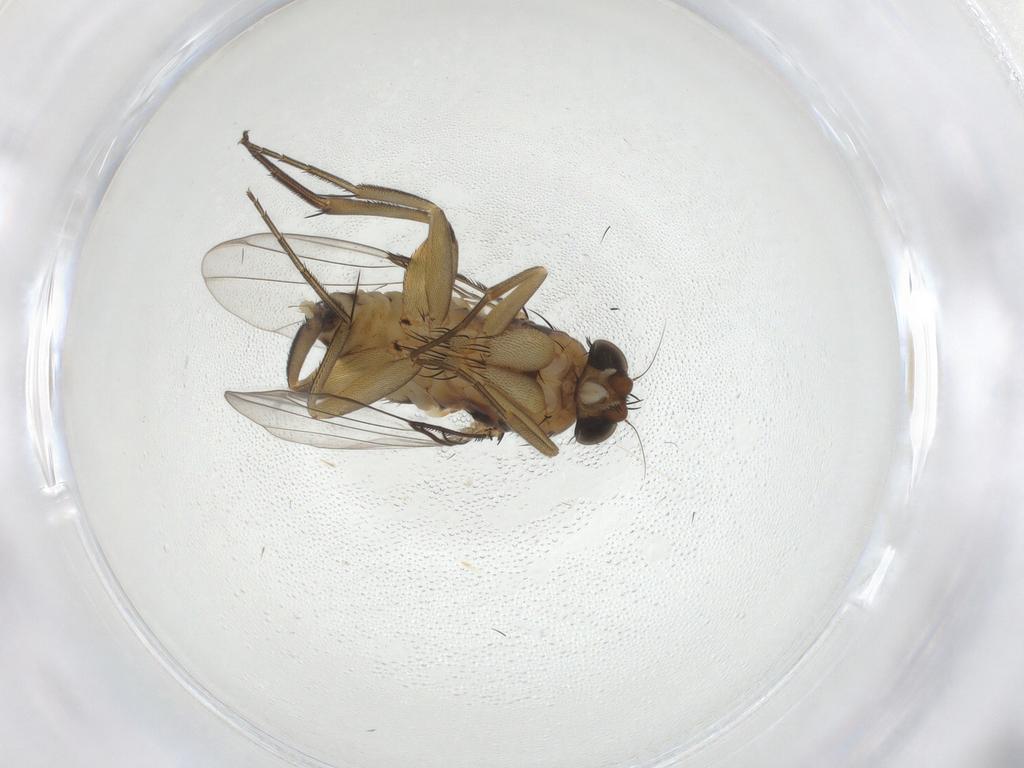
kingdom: Animalia
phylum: Arthropoda
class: Insecta
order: Diptera
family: Phoridae
